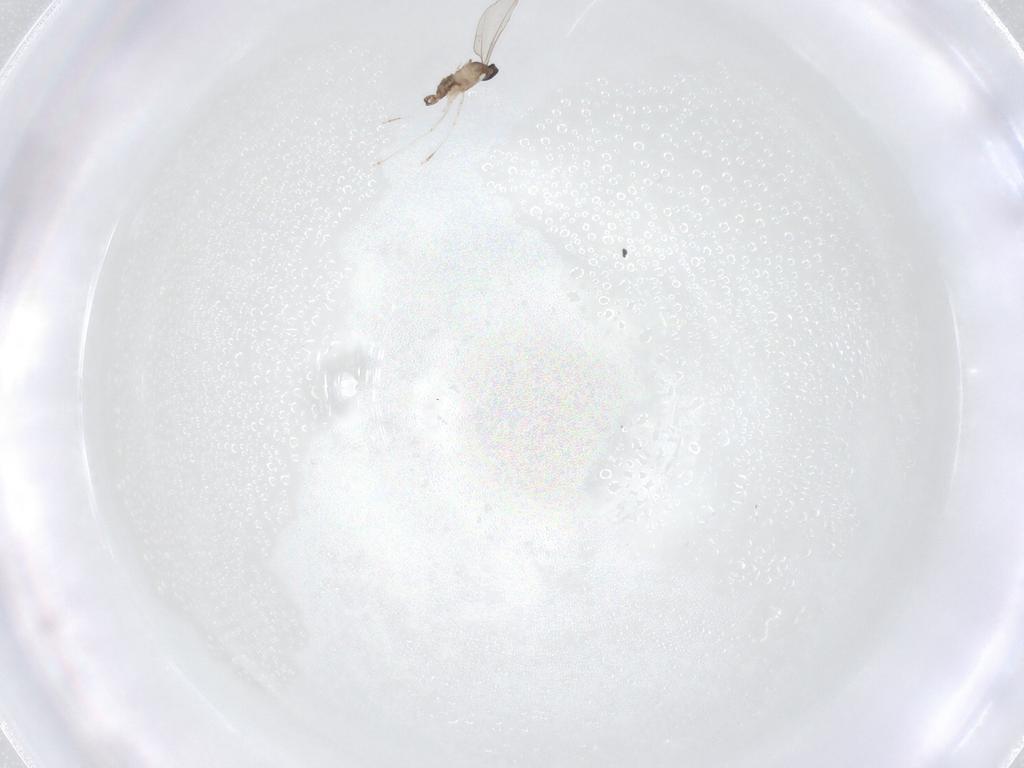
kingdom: Animalia
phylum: Arthropoda
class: Insecta
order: Diptera
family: Cecidomyiidae
